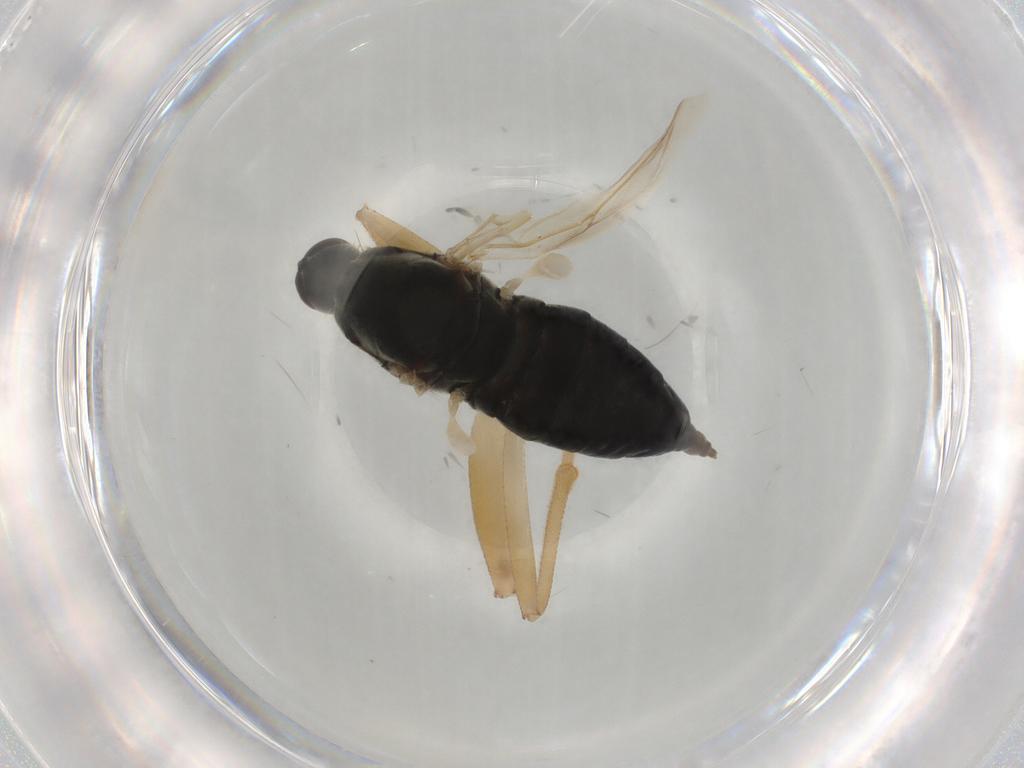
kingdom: Animalia
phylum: Arthropoda
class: Insecta
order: Diptera
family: Hybotidae
